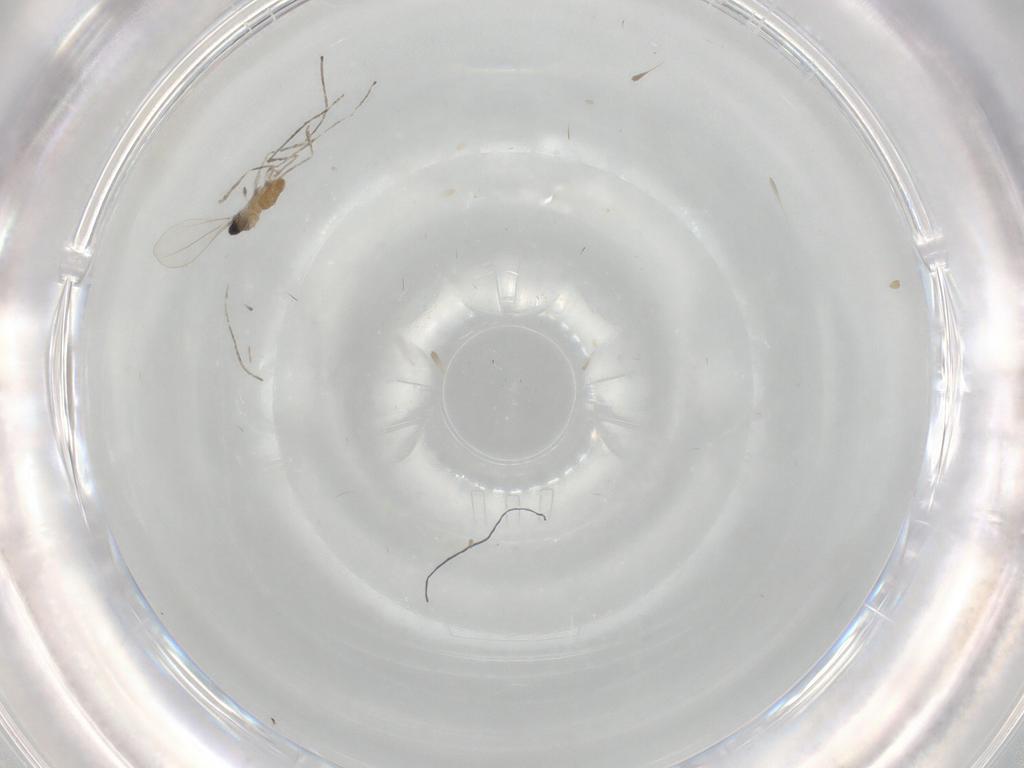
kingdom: Animalia
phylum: Arthropoda
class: Insecta
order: Diptera
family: Cecidomyiidae
